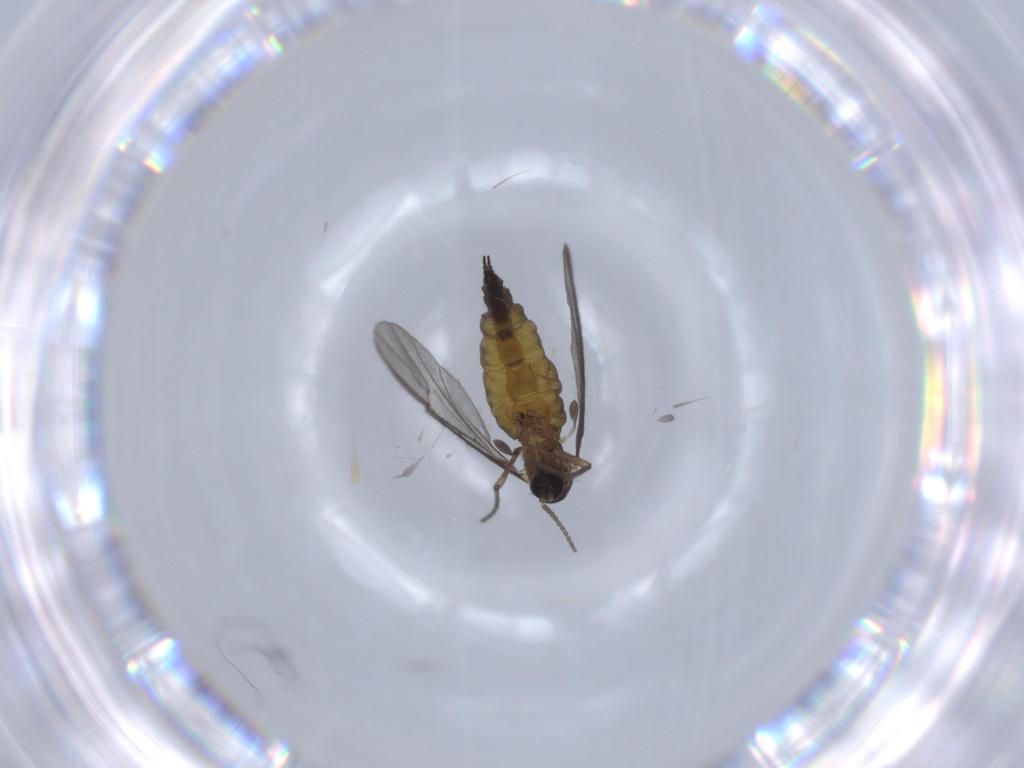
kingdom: Animalia
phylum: Arthropoda
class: Insecta
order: Diptera
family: Sciaridae
